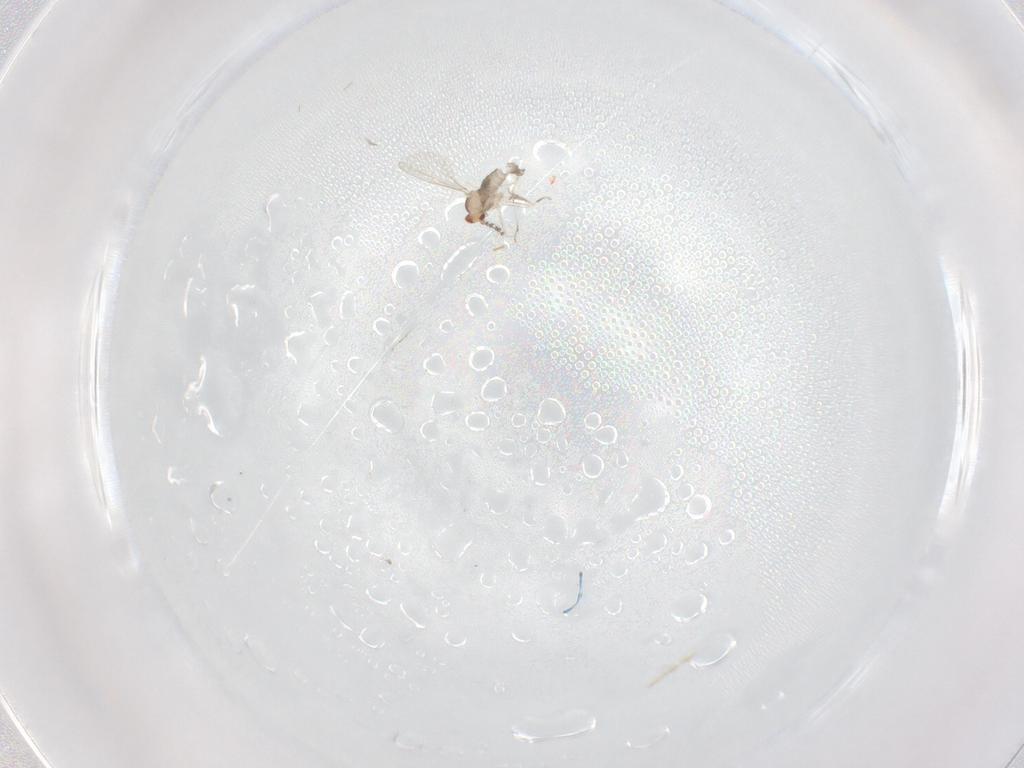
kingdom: Animalia
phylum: Arthropoda
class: Insecta
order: Diptera
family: Cecidomyiidae
